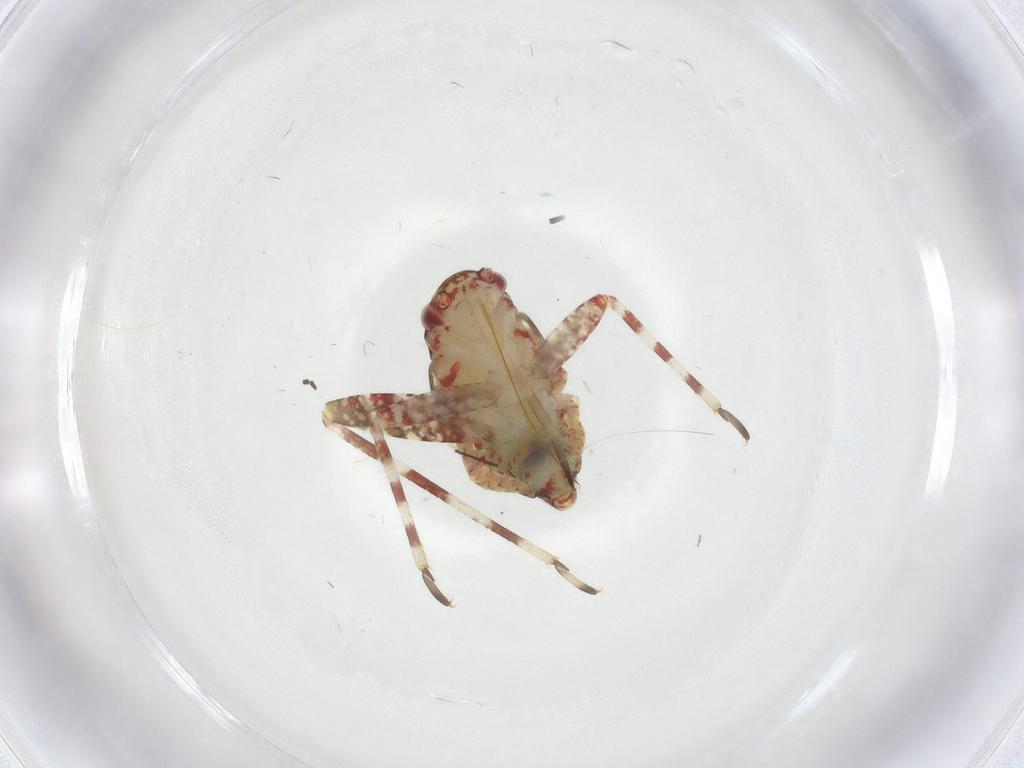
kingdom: Animalia
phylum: Arthropoda
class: Insecta
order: Hemiptera
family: Miridae
